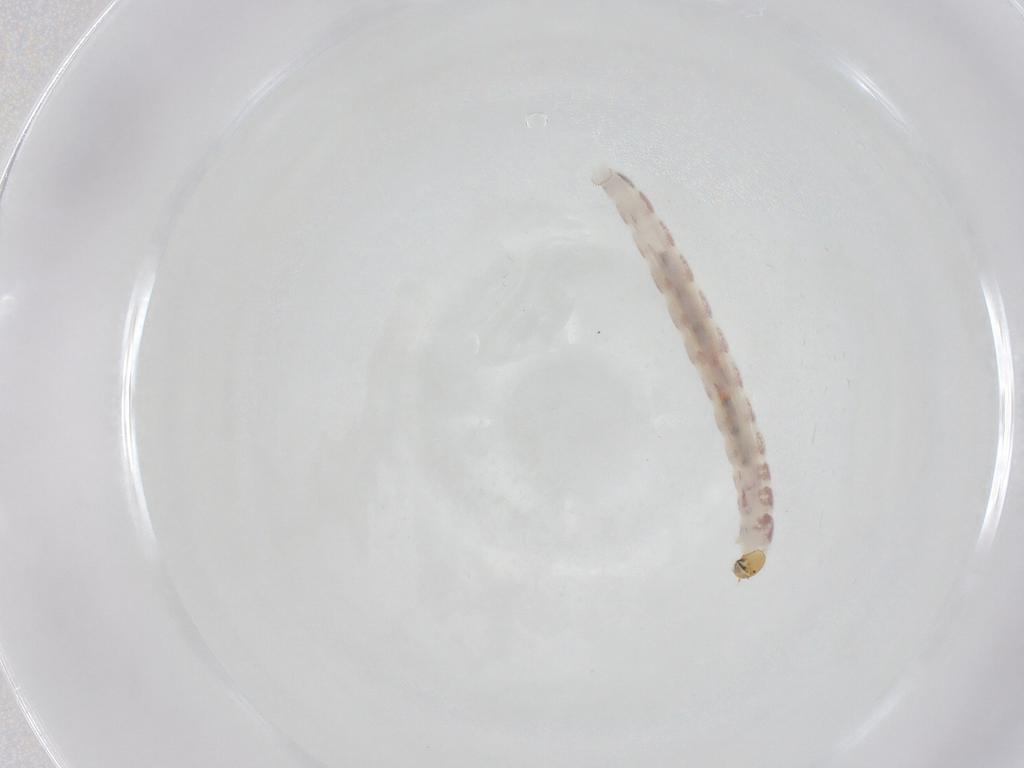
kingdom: Animalia
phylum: Arthropoda
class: Insecta
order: Diptera
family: Chironomidae
